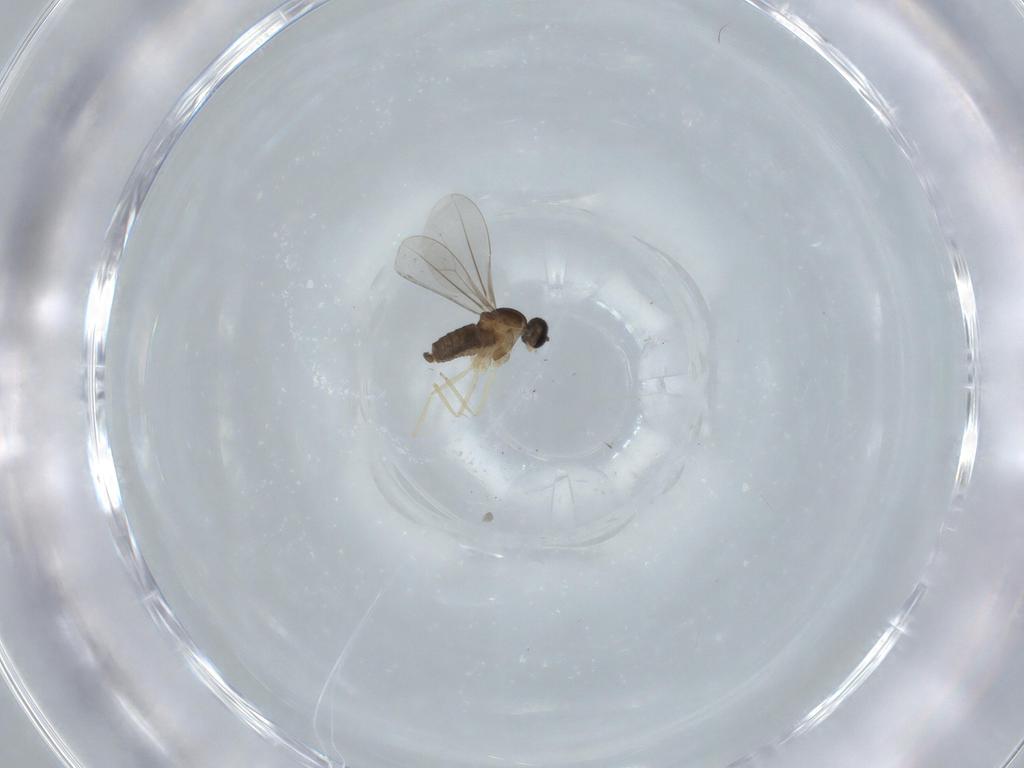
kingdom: Animalia
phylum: Arthropoda
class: Insecta
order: Diptera
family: Cecidomyiidae
